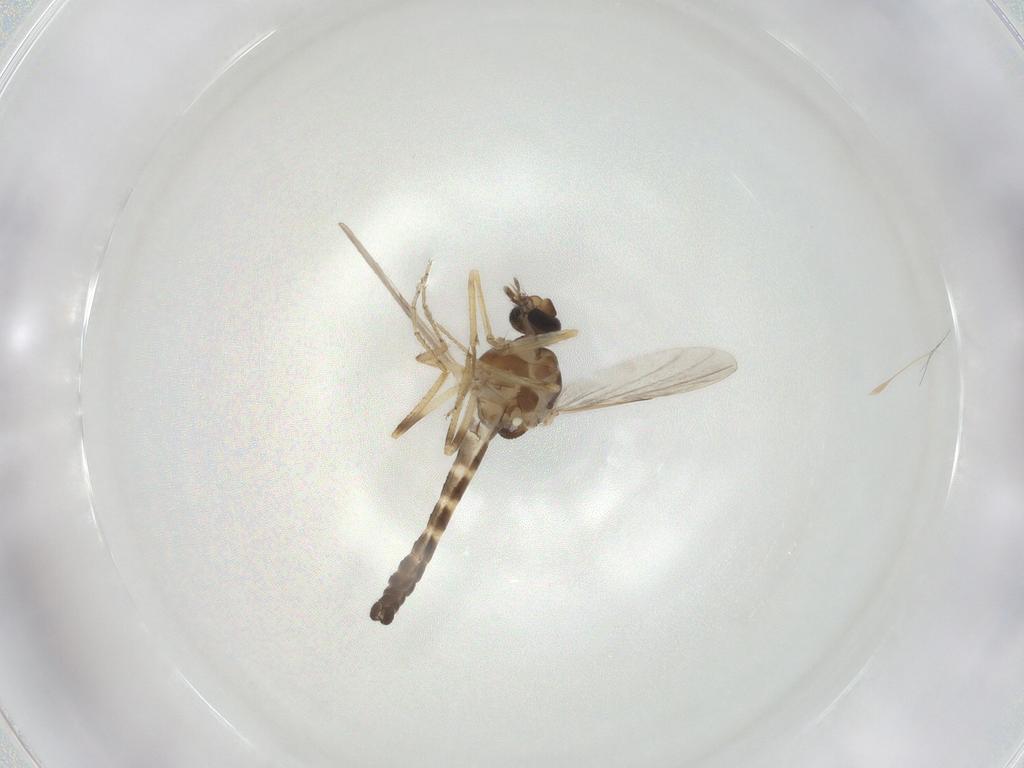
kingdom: Animalia
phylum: Arthropoda
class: Insecta
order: Diptera
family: Ceratopogonidae
